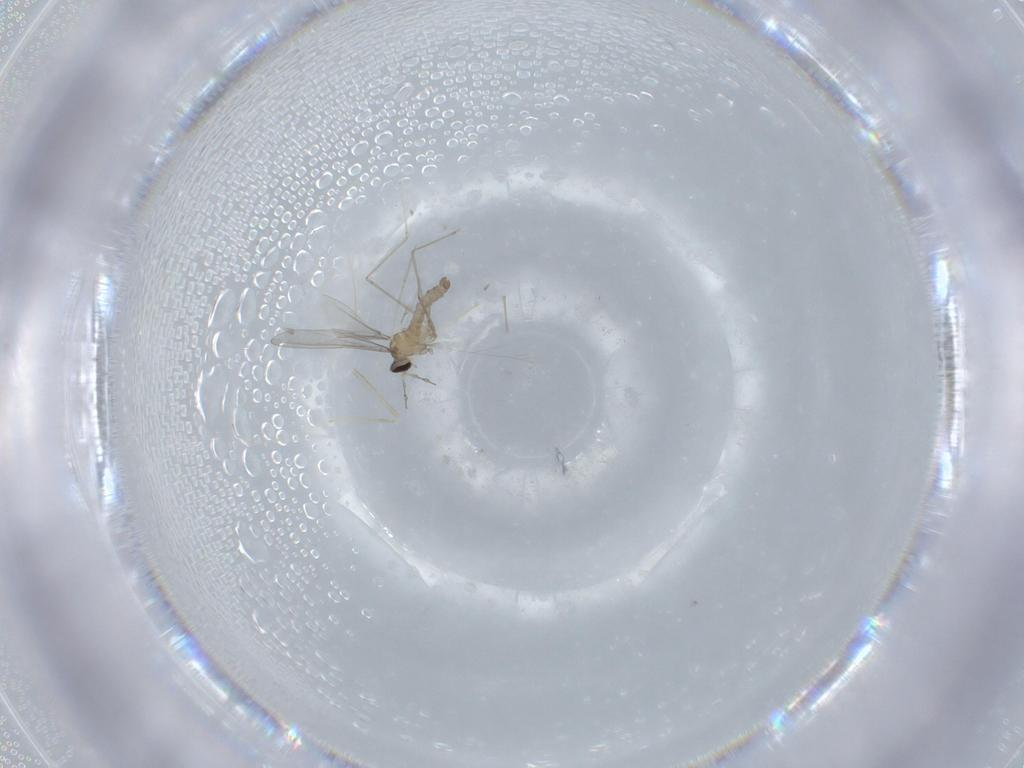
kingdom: Animalia
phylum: Arthropoda
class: Insecta
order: Diptera
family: Cecidomyiidae
